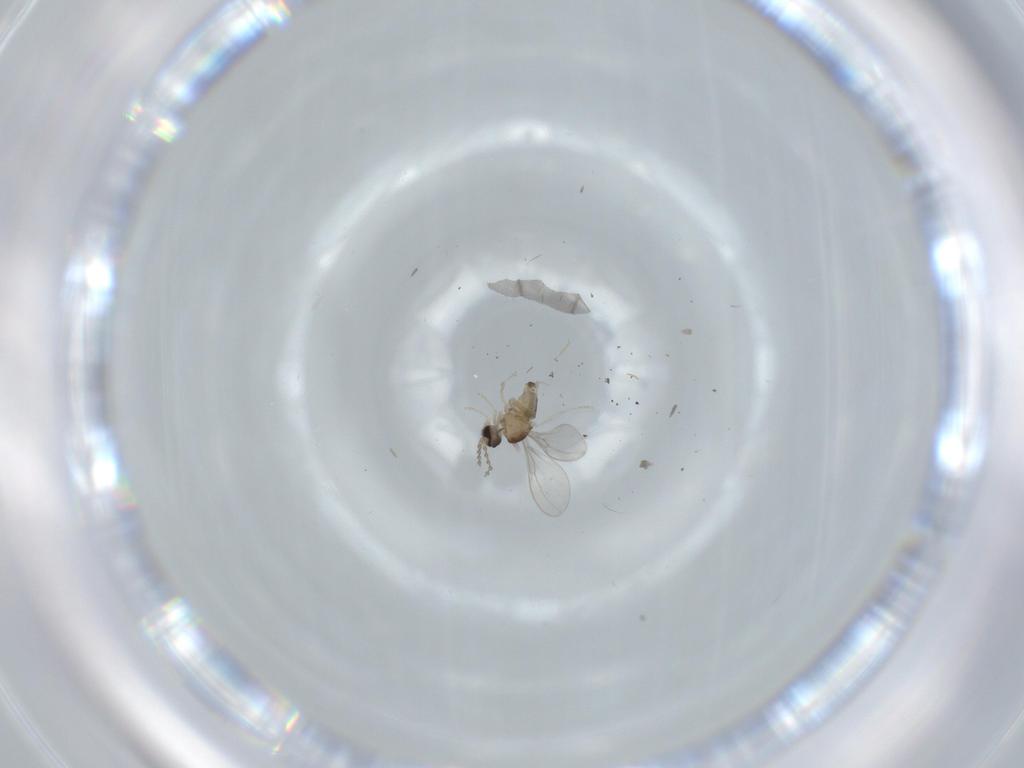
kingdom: Animalia
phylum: Arthropoda
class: Insecta
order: Diptera
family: Cecidomyiidae
